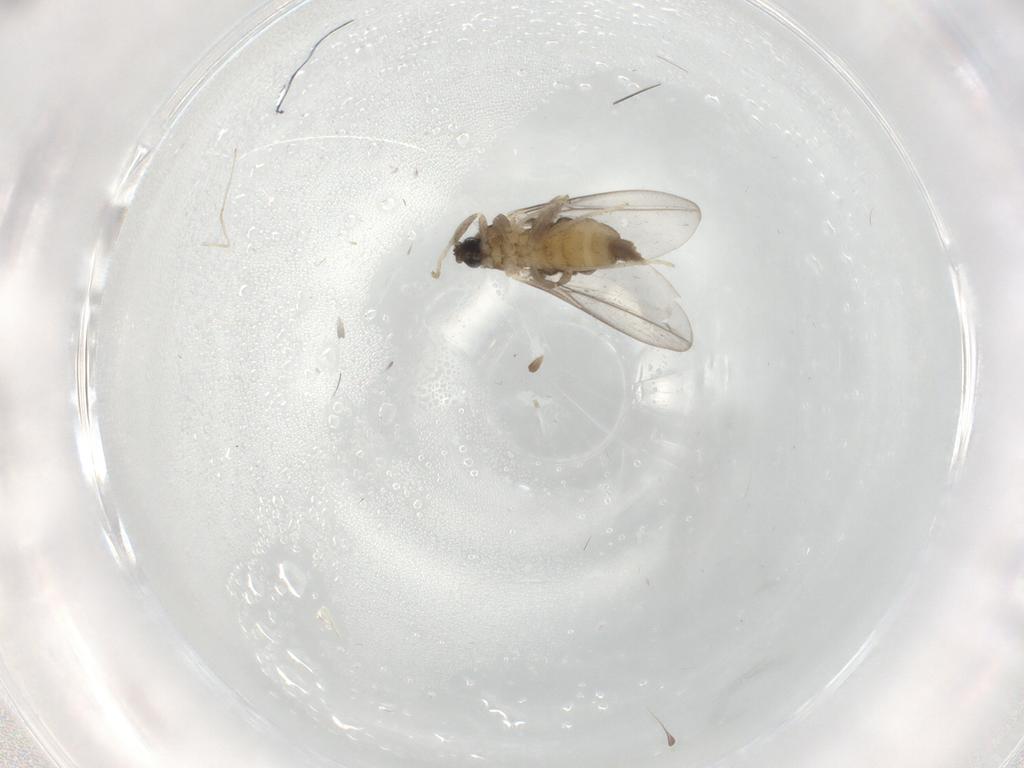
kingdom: Animalia
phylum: Arthropoda
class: Insecta
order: Diptera
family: Cecidomyiidae
